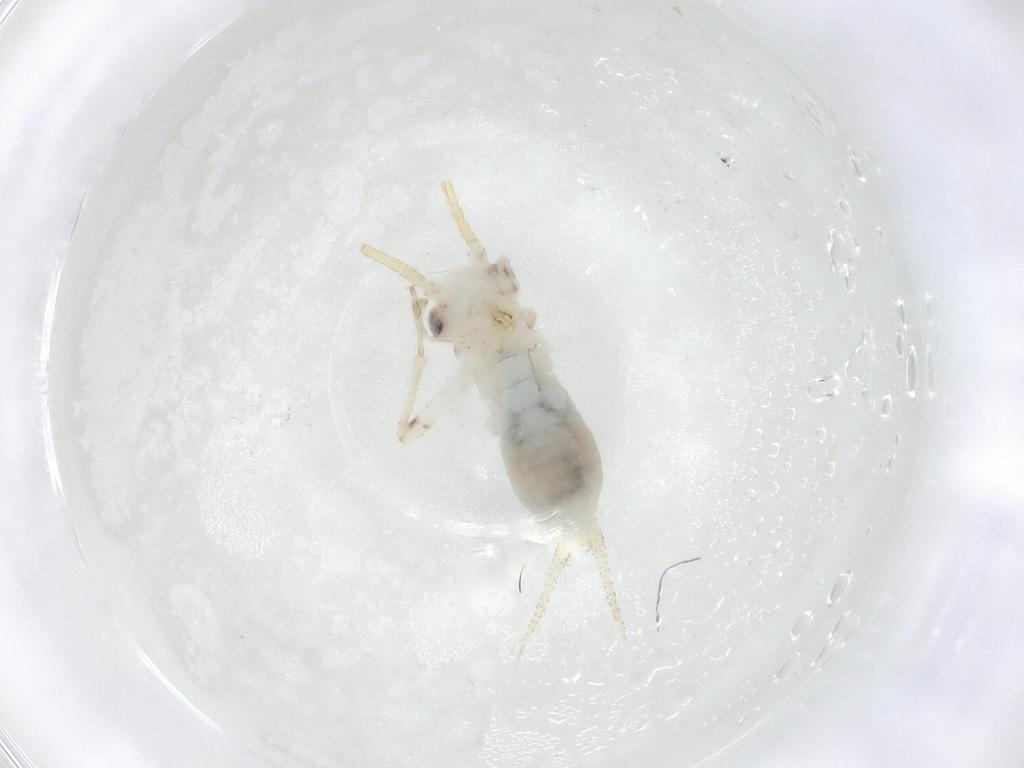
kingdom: Animalia
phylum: Arthropoda
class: Insecta
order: Orthoptera
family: Trigonidiidae
